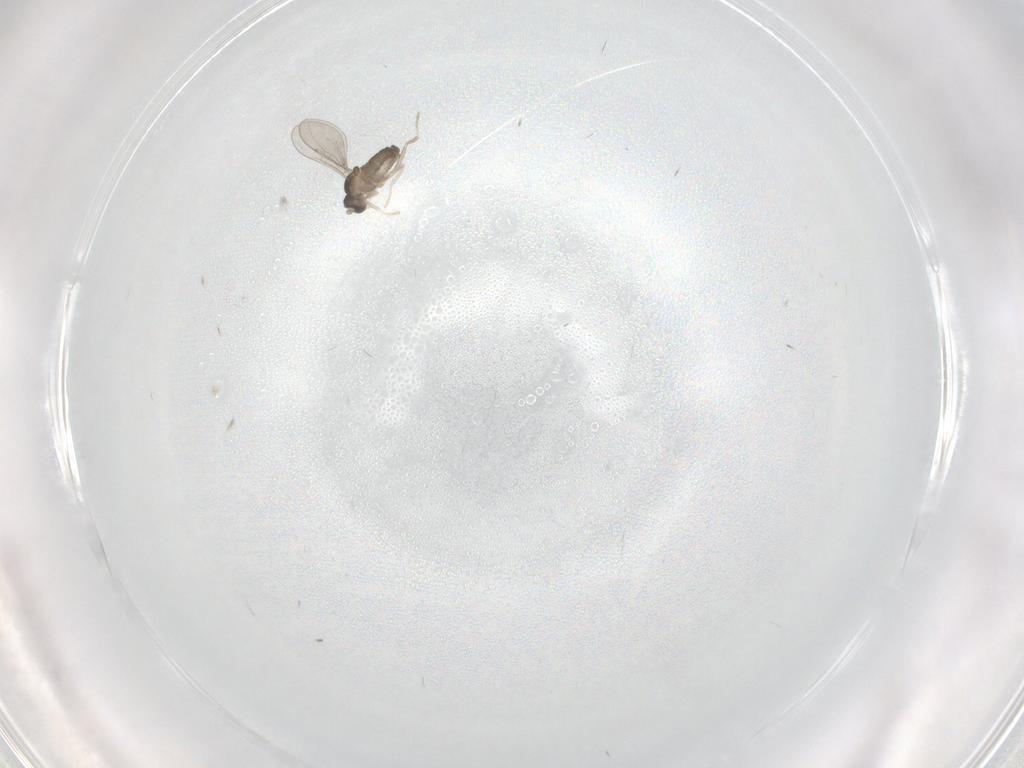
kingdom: Animalia
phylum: Arthropoda
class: Insecta
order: Diptera
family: Cecidomyiidae
